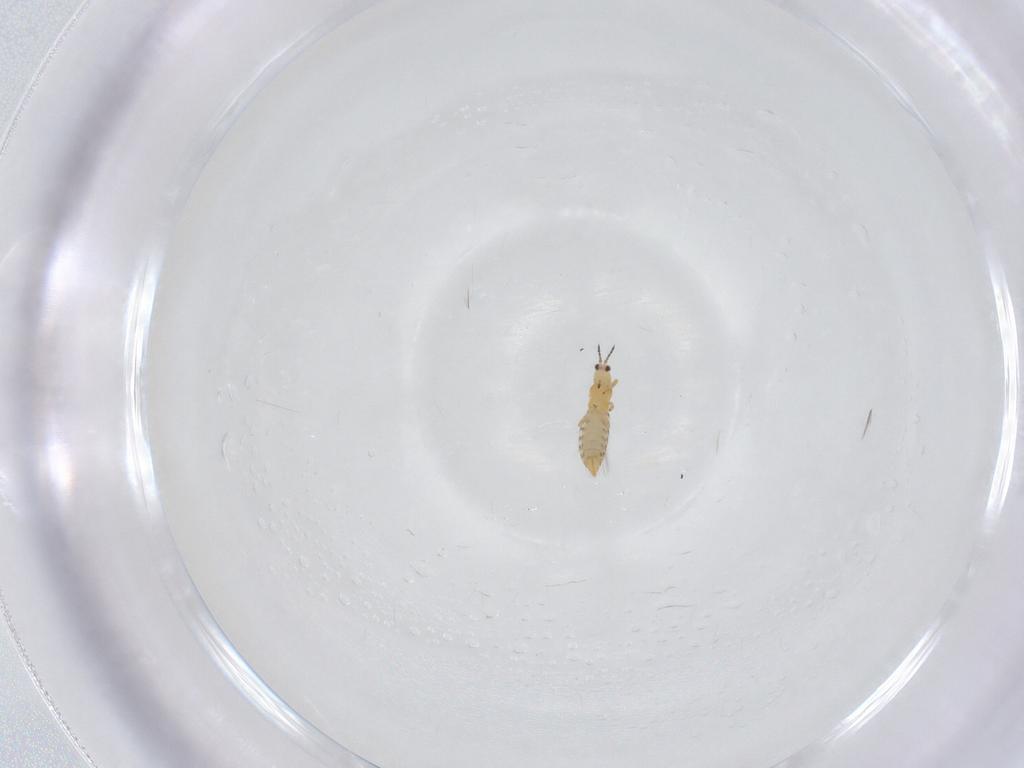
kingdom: Animalia
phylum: Arthropoda
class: Insecta
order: Thysanoptera
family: Thripidae
